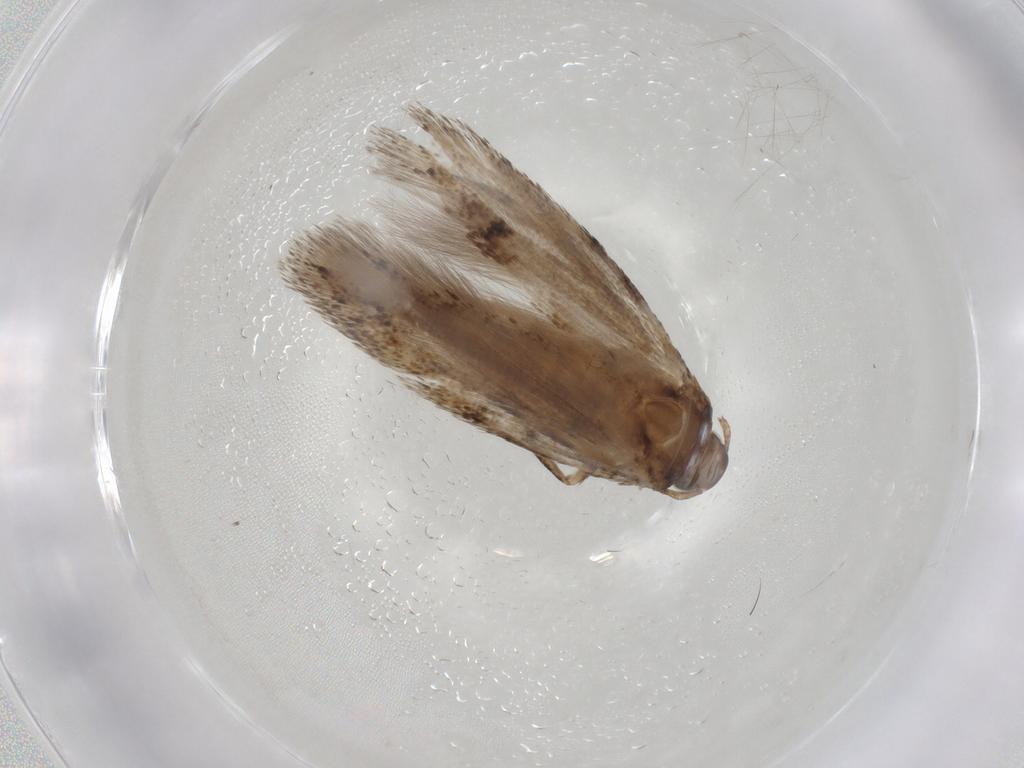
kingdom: Animalia
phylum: Arthropoda
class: Insecta
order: Lepidoptera
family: Gelechiidae
